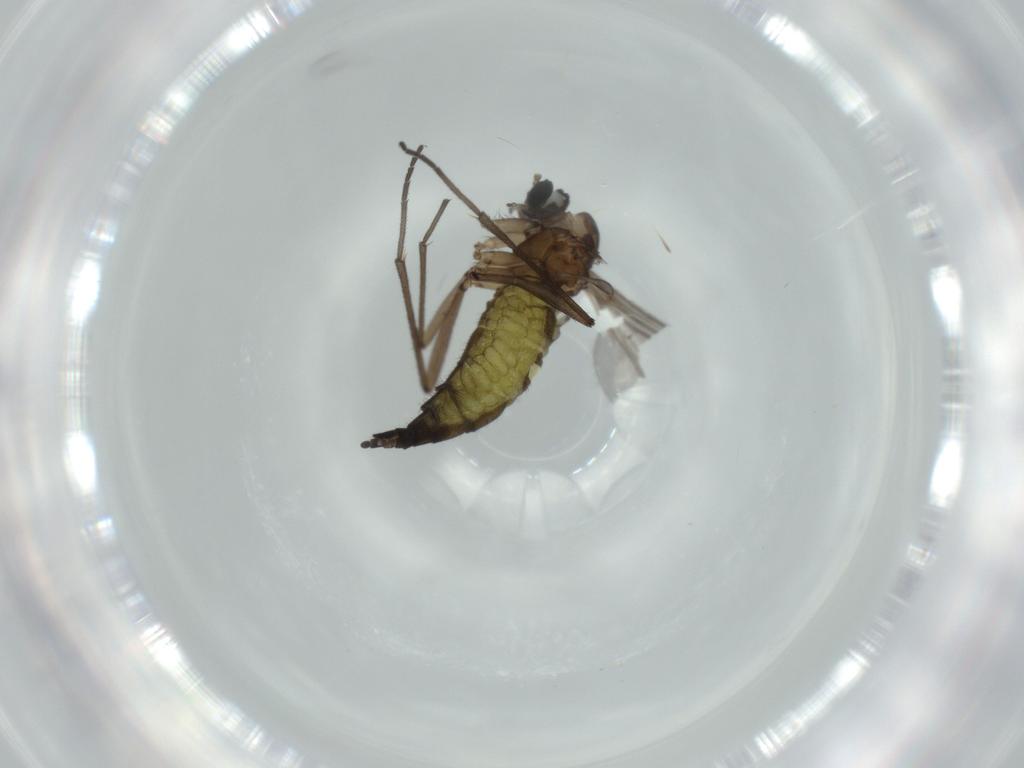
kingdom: Animalia
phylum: Arthropoda
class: Insecta
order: Diptera
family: Sciaridae
